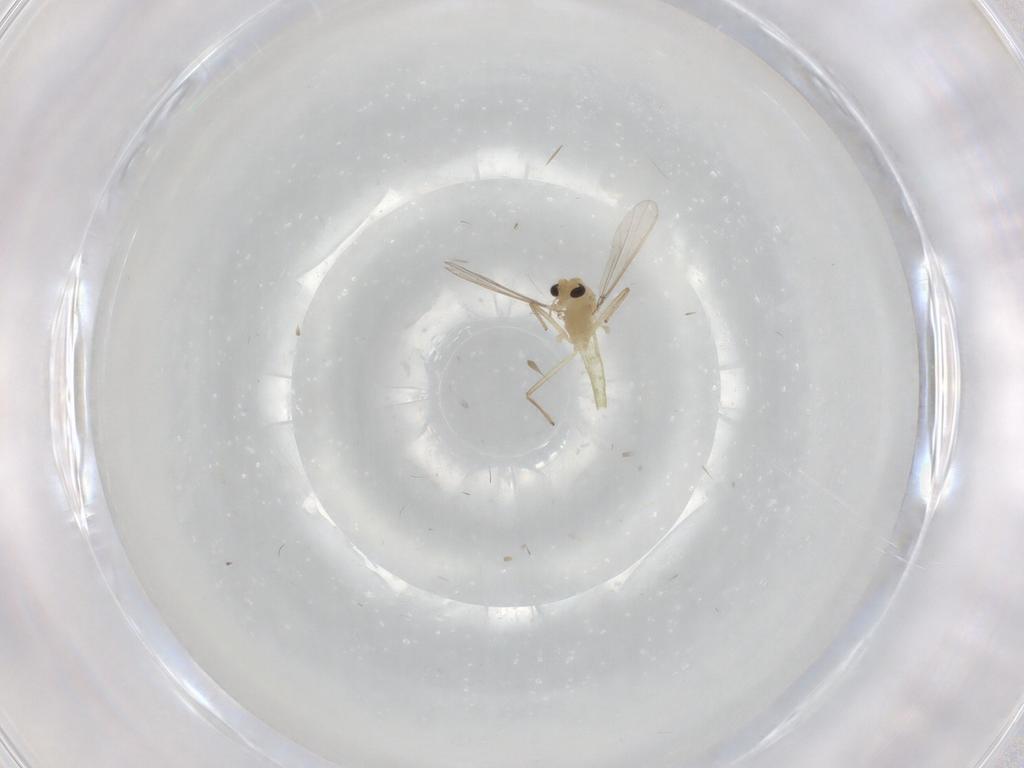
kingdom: Animalia
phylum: Arthropoda
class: Insecta
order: Diptera
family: Chironomidae
